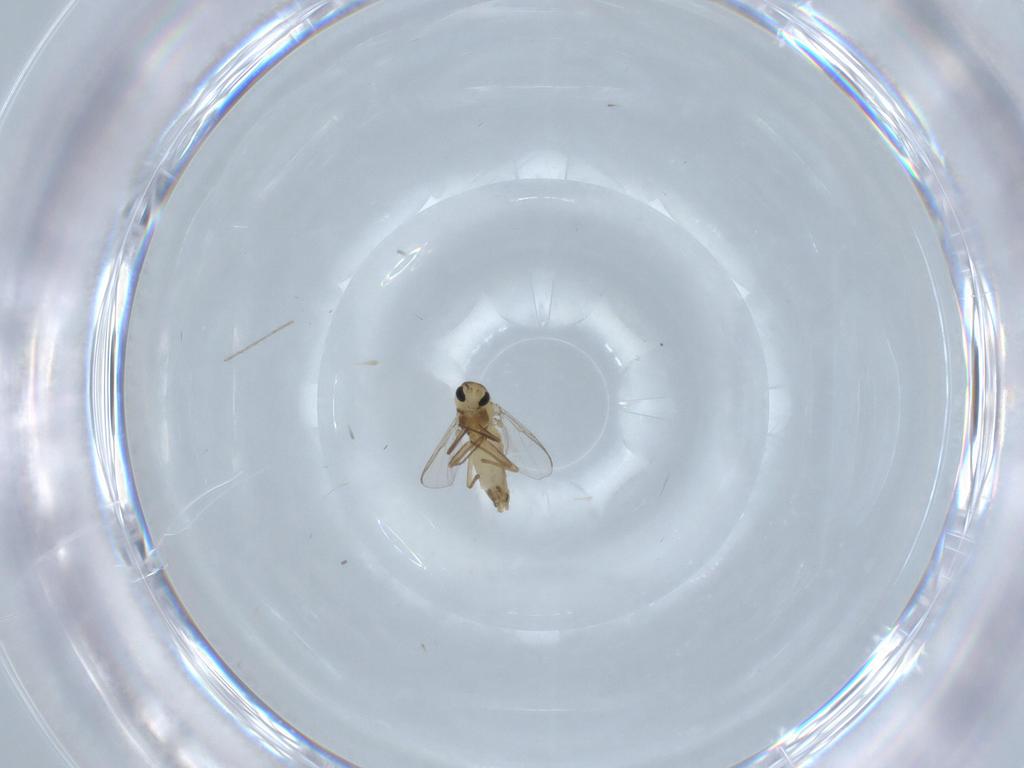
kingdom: Animalia
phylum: Arthropoda
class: Insecta
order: Diptera
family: Chironomidae
